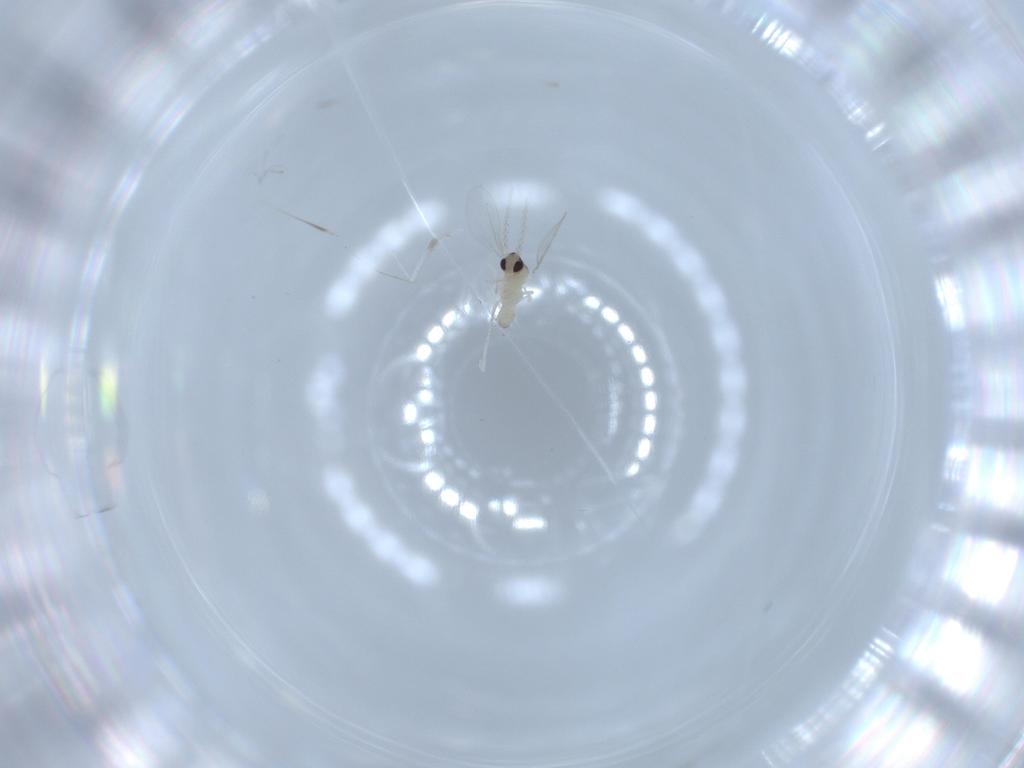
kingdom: Animalia
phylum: Arthropoda
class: Insecta
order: Diptera
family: Cecidomyiidae
